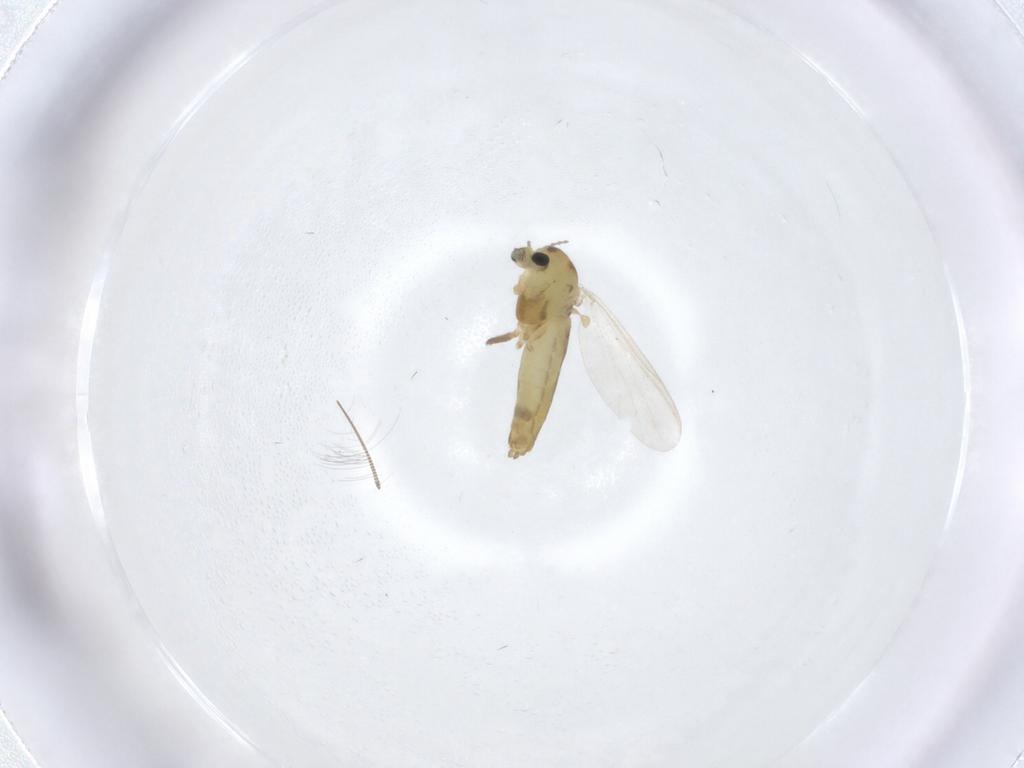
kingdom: Animalia
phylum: Arthropoda
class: Insecta
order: Diptera
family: Chironomidae
